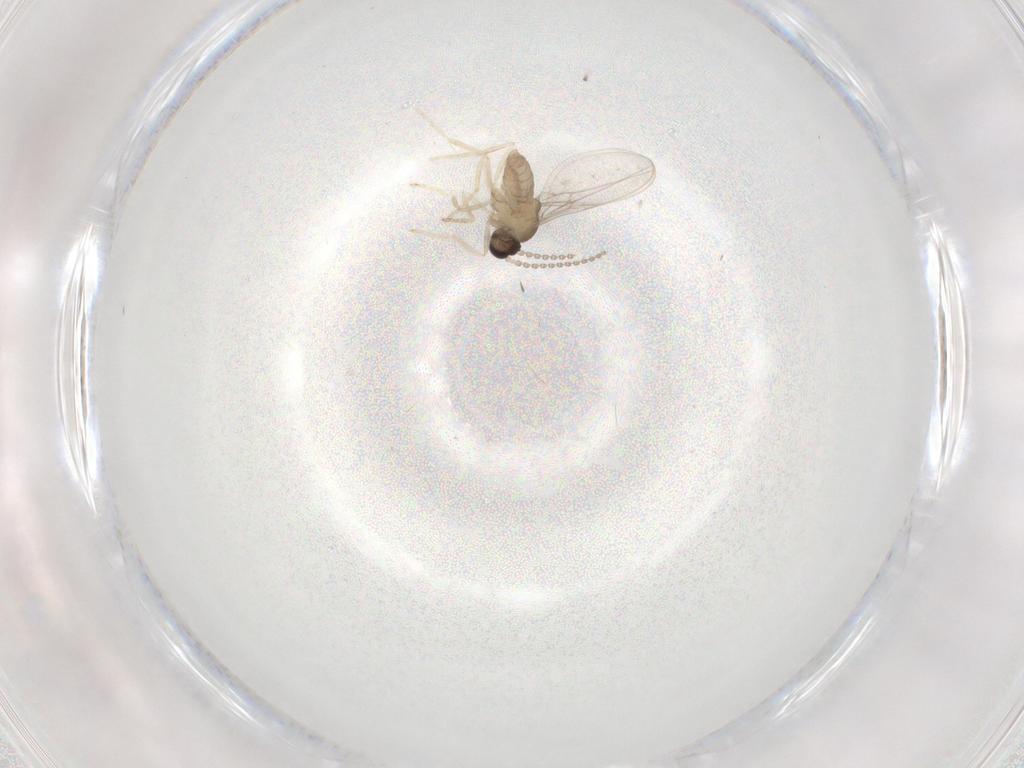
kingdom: Animalia
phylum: Arthropoda
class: Insecta
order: Diptera
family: Cecidomyiidae
